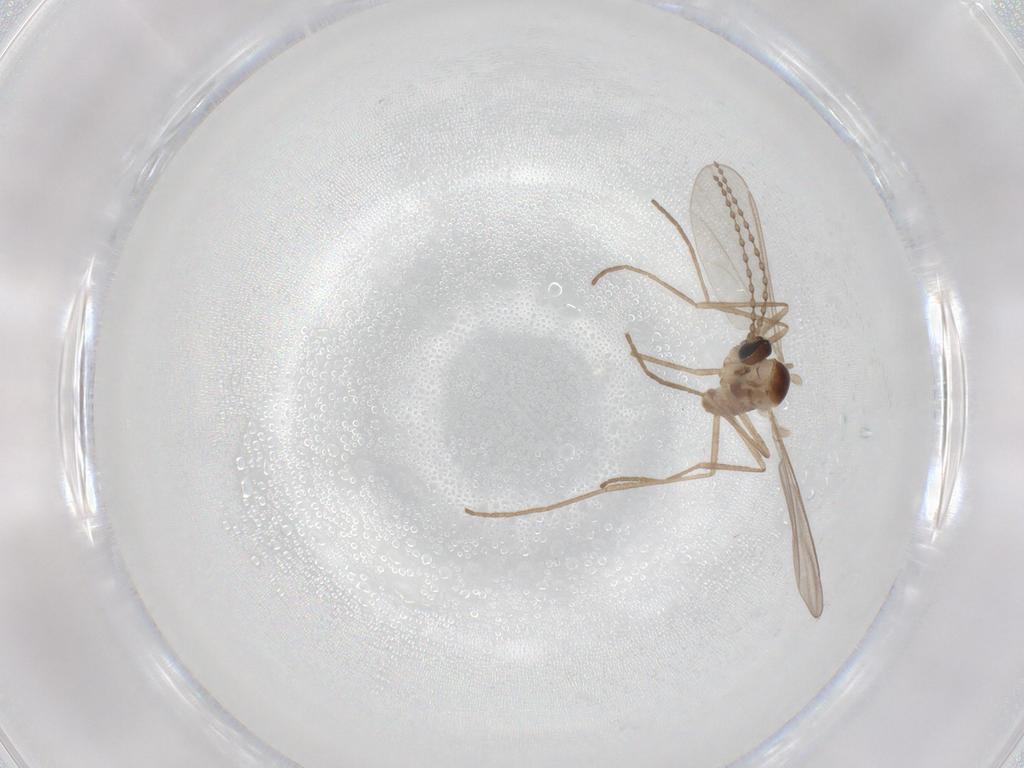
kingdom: Animalia
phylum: Arthropoda
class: Insecta
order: Diptera
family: Cecidomyiidae
